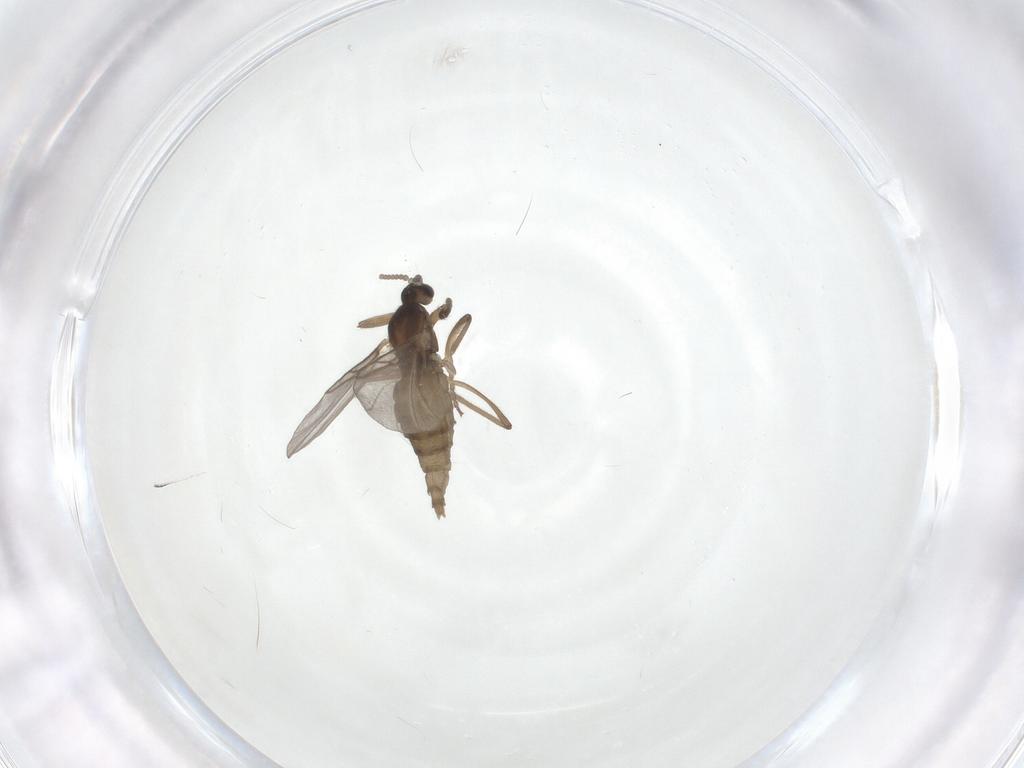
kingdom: Animalia
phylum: Arthropoda
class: Insecta
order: Diptera
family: Cecidomyiidae
